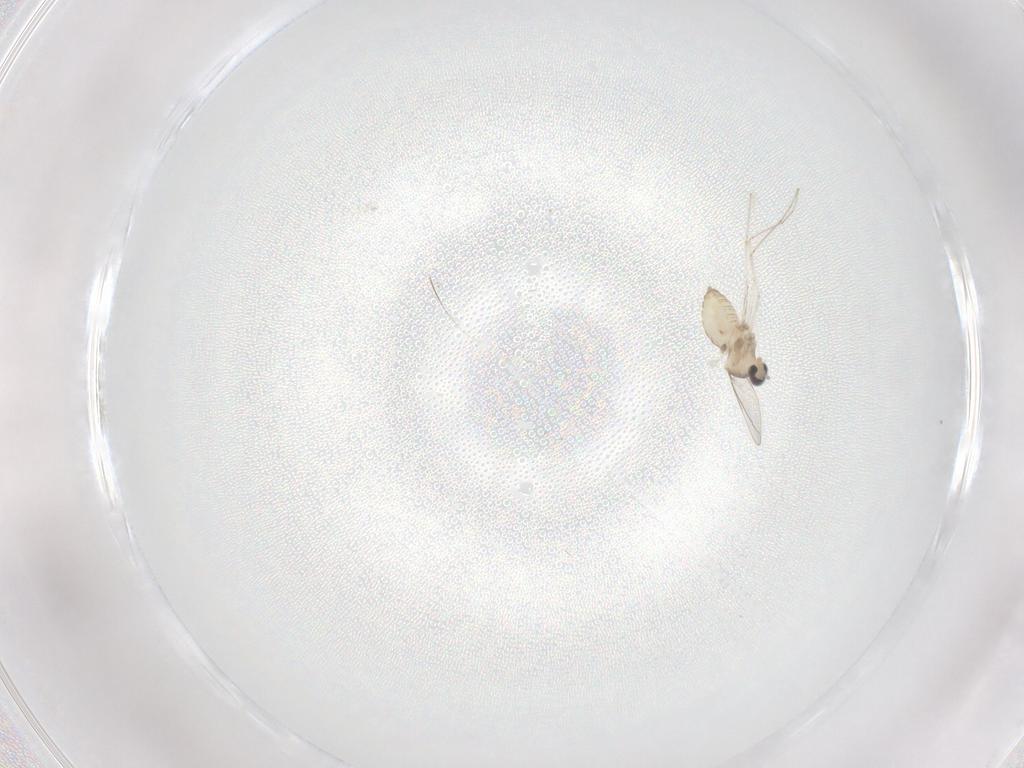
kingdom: Animalia
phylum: Arthropoda
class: Insecta
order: Diptera
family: Cecidomyiidae
